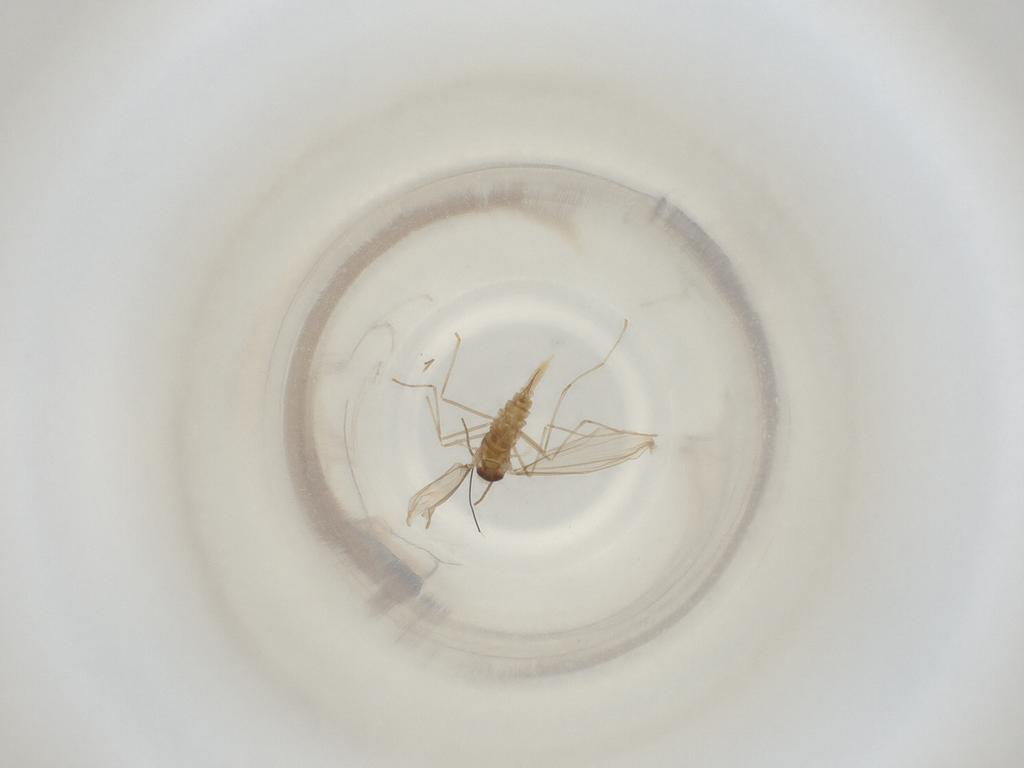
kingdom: Animalia
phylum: Arthropoda
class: Insecta
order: Diptera
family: Cecidomyiidae
